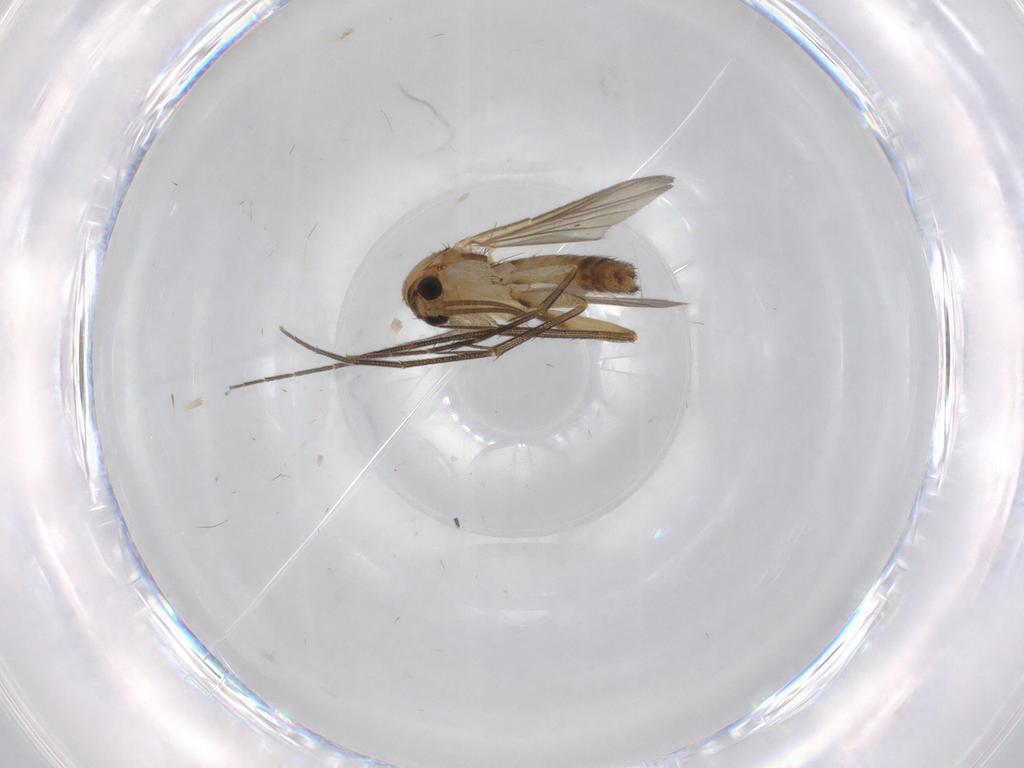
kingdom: Animalia
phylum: Arthropoda
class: Insecta
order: Diptera
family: Mycetophilidae
